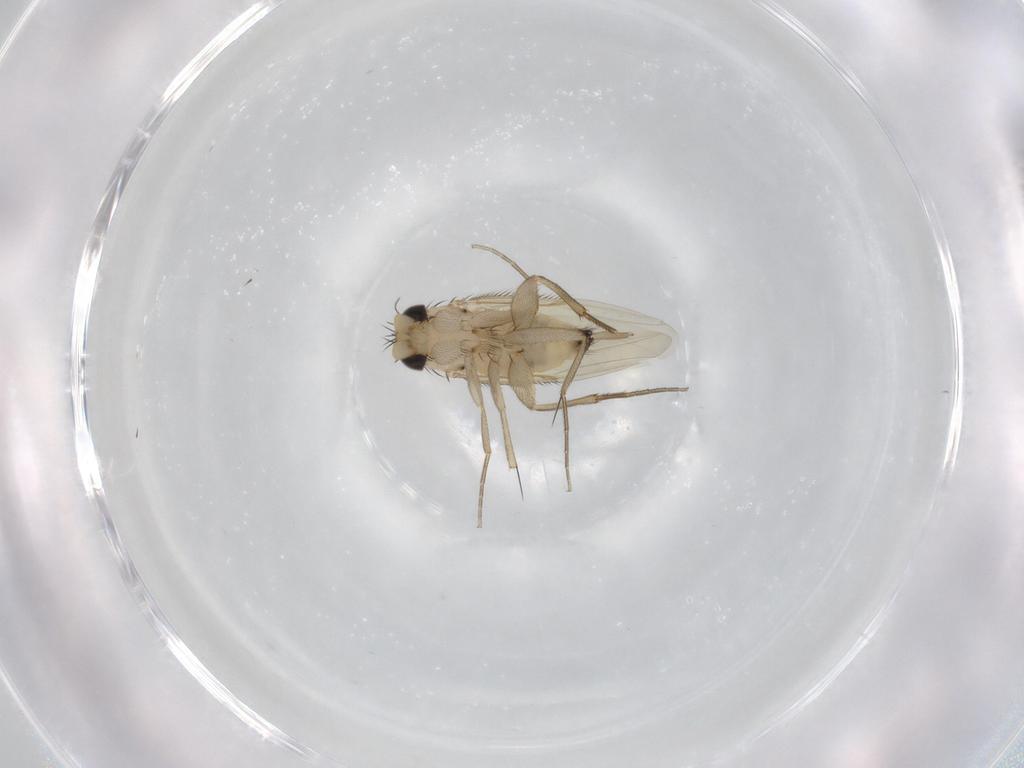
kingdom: Animalia
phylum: Arthropoda
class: Insecta
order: Diptera
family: Phoridae
